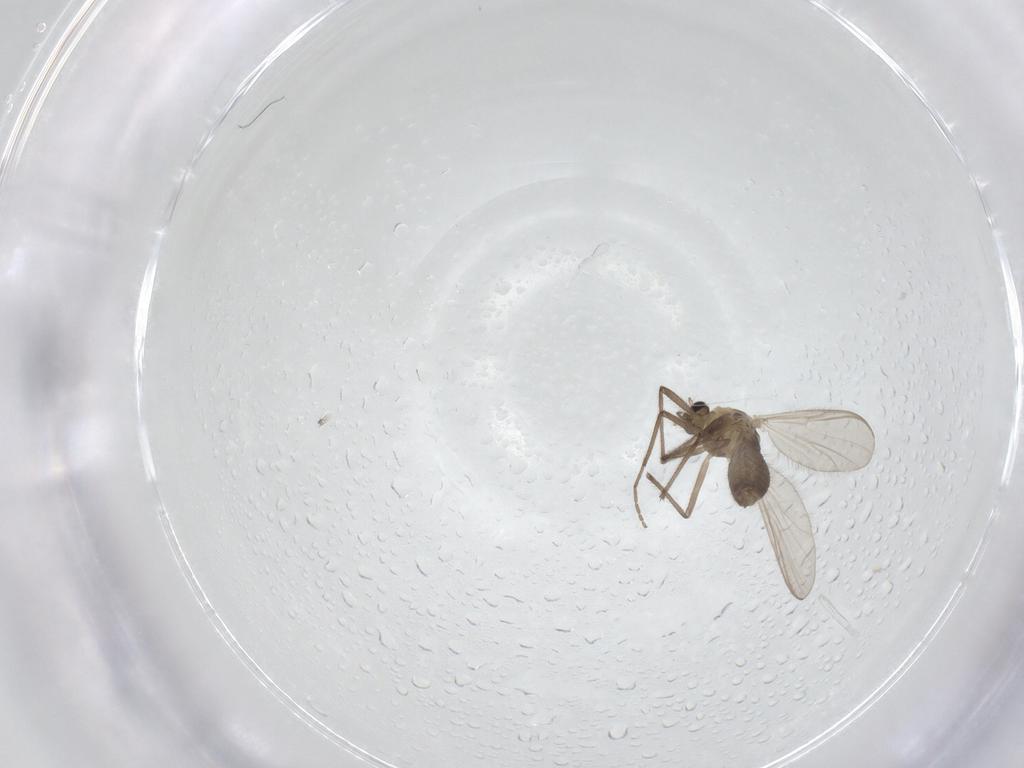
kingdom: Animalia
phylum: Arthropoda
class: Insecta
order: Diptera
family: Chironomidae
